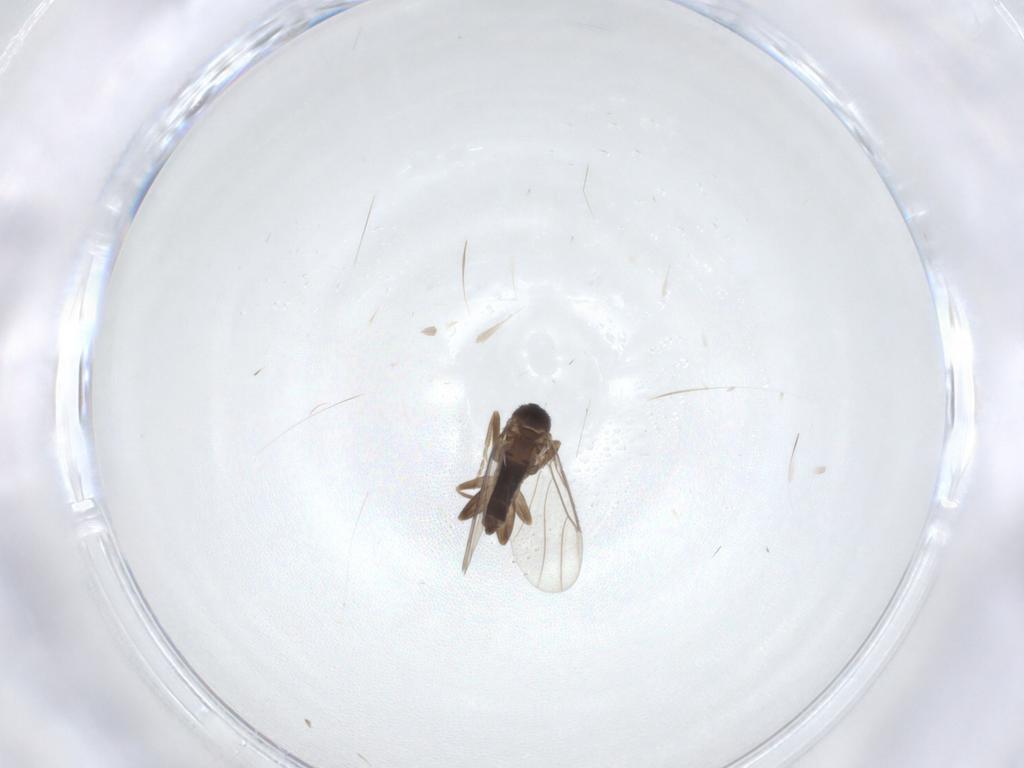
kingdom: Animalia
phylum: Arthropoda
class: Insecta
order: Diptera
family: Phoridae
